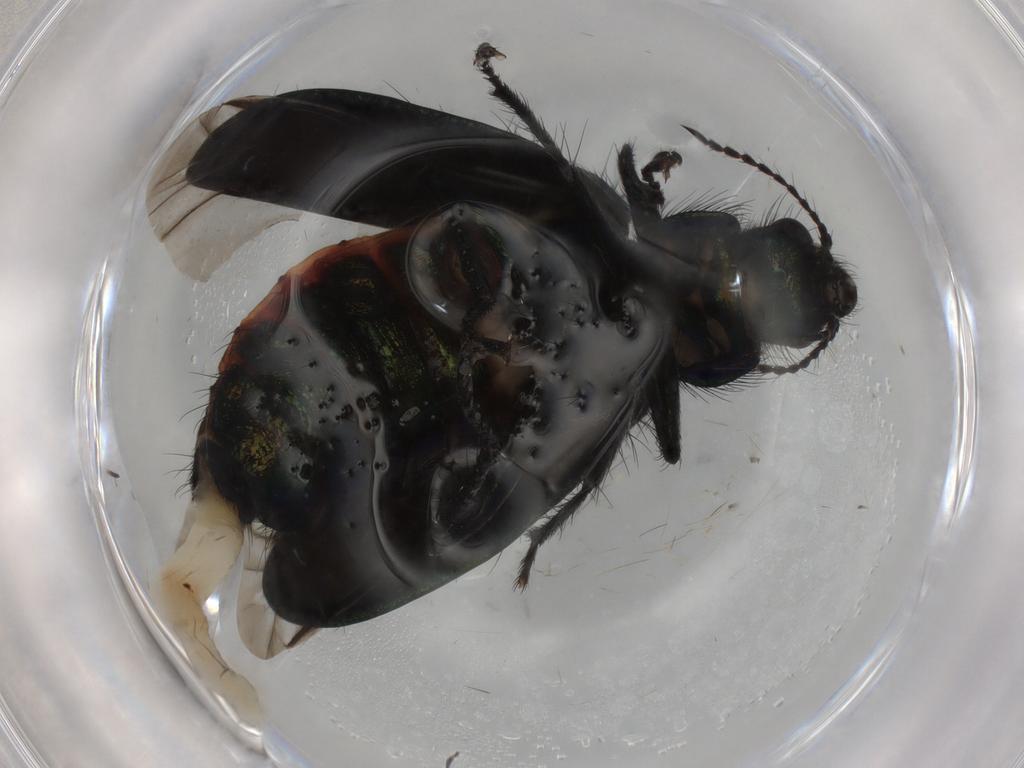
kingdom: Animalia
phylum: Arthropoda
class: Insecta
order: Coleoptera
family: Melyridae
